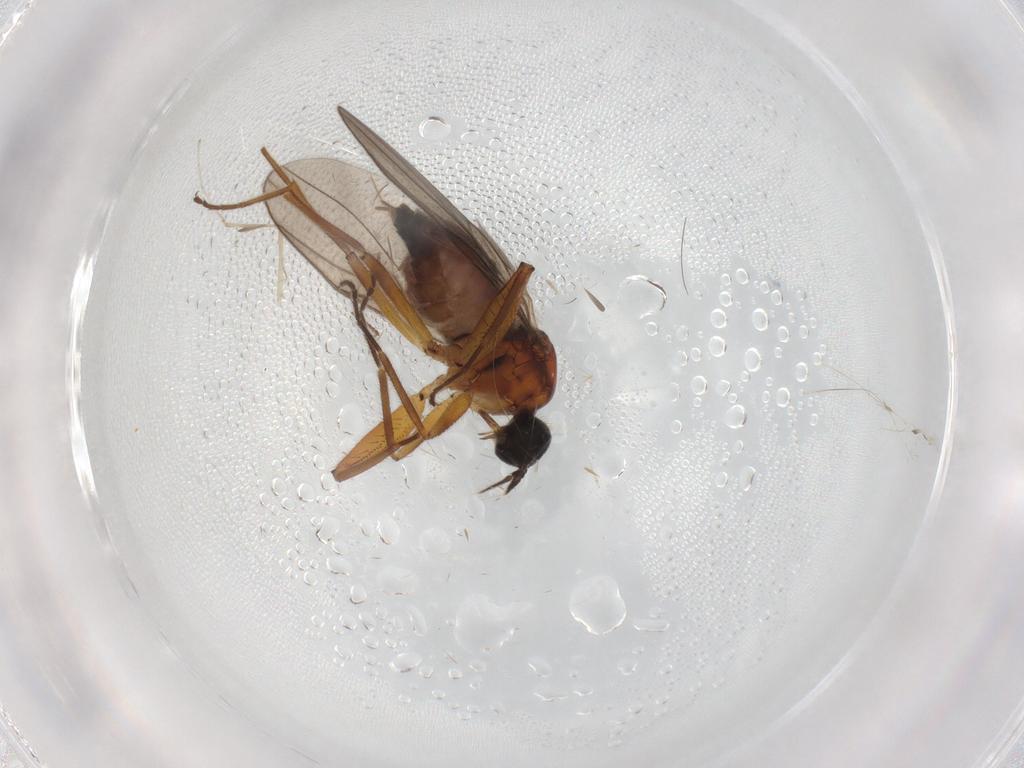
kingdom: Animalia
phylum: Arthropoda
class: Insecta
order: Diptera
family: Hybotidae
